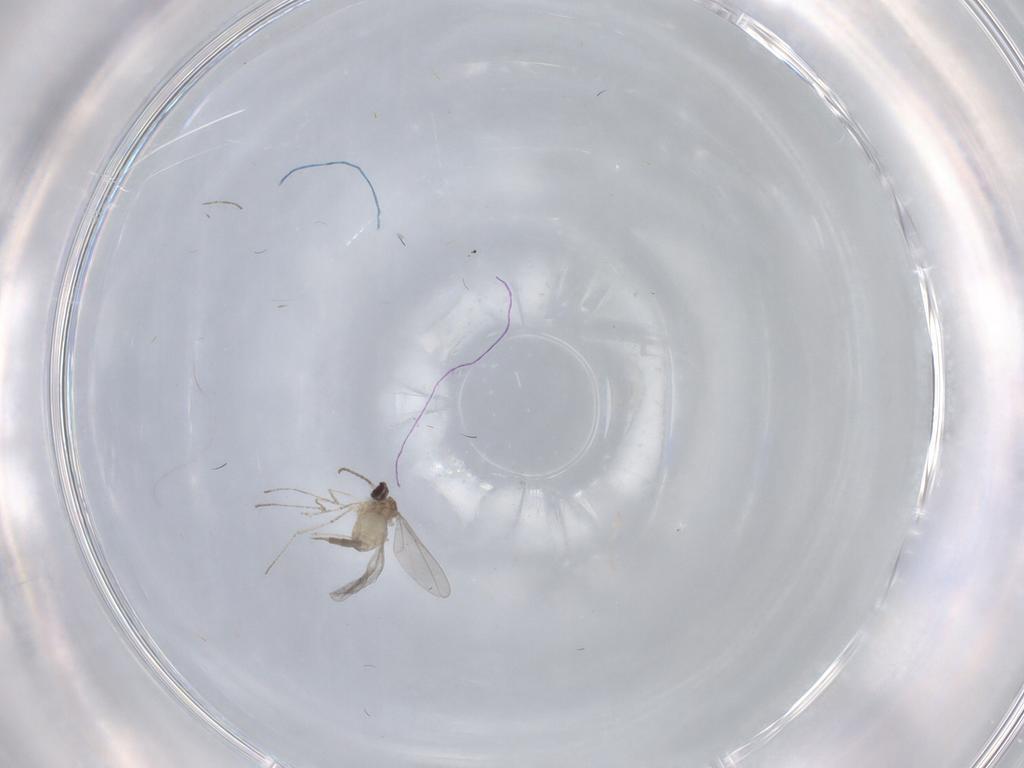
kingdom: Animalia
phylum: Arthropoda
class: Insecta
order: Diptera
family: Cecidomyiidae
